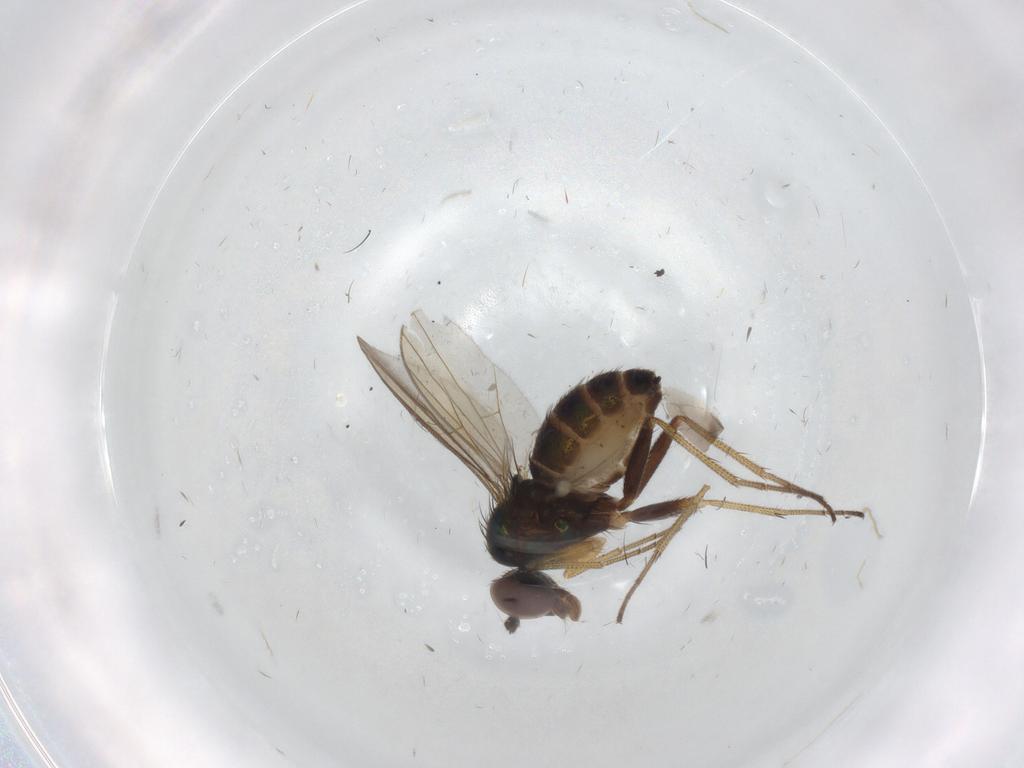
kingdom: Animalia
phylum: Arthropoda
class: Insecta
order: Diptera
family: Dolichopodidae
